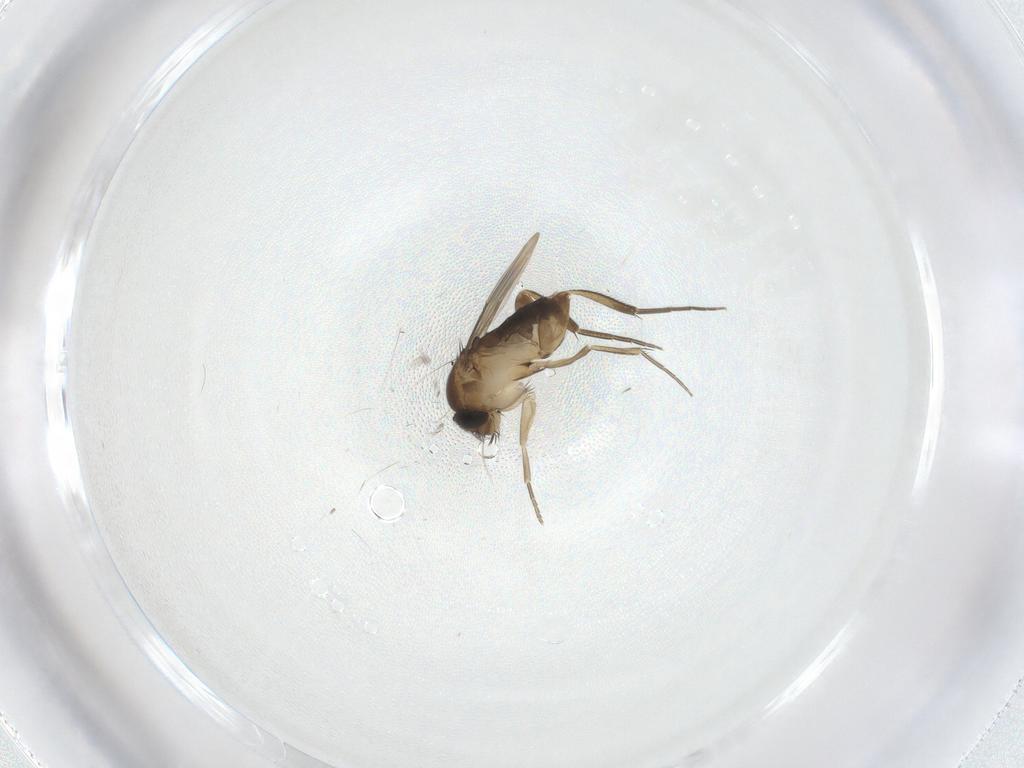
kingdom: Animalia
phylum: Arthropoda
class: Insecta
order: Diptera
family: Phoridae
